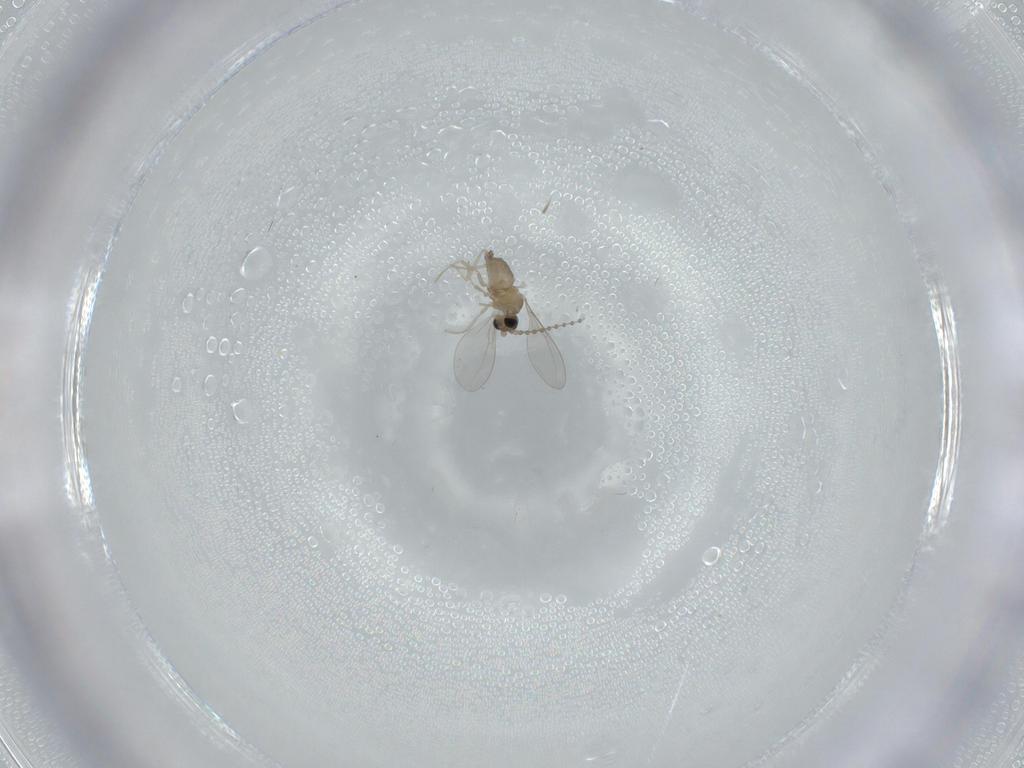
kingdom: Animalia
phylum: Arthropoda
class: Insecta
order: Diptera
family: Cecidomyiidae
